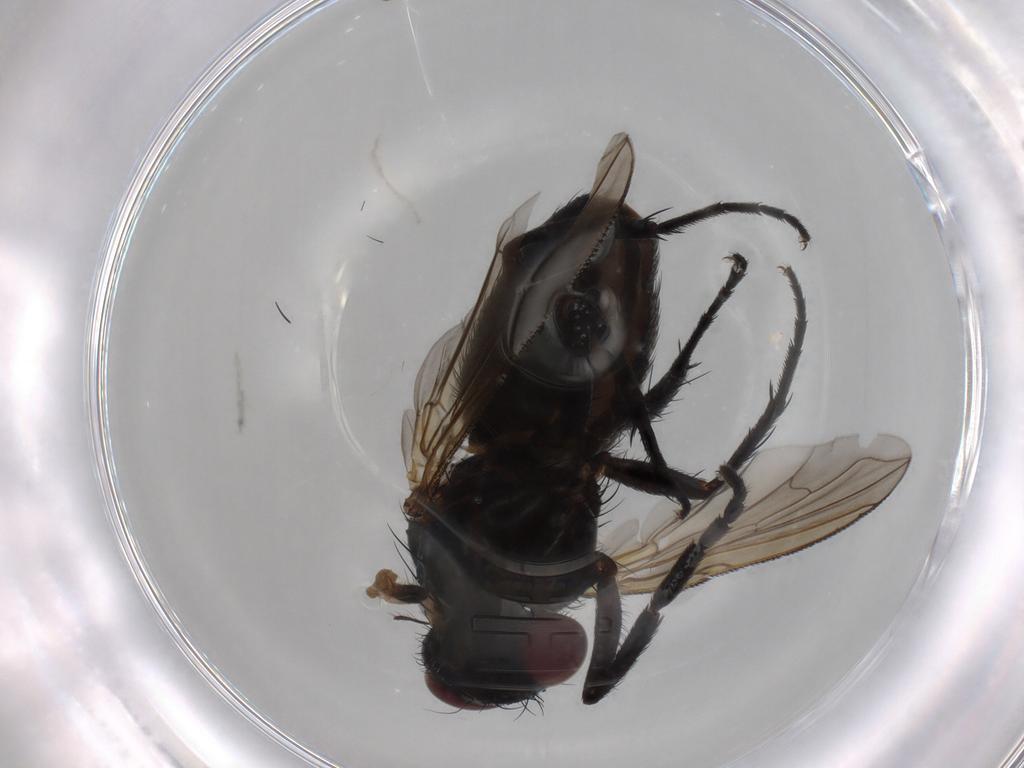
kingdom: Animalia
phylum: Arthropoda
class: Insecta
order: Diptera
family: Tachinidae
